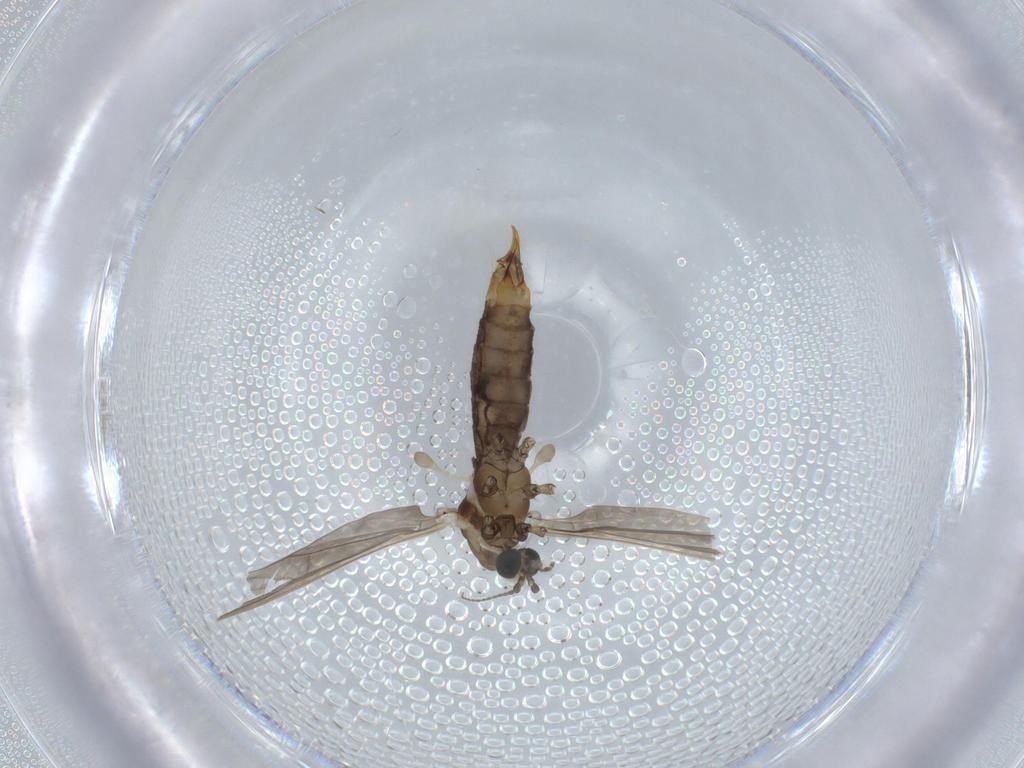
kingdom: Animalia
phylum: Arthropoda
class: Insecta
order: Diptera
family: Limoniidae
